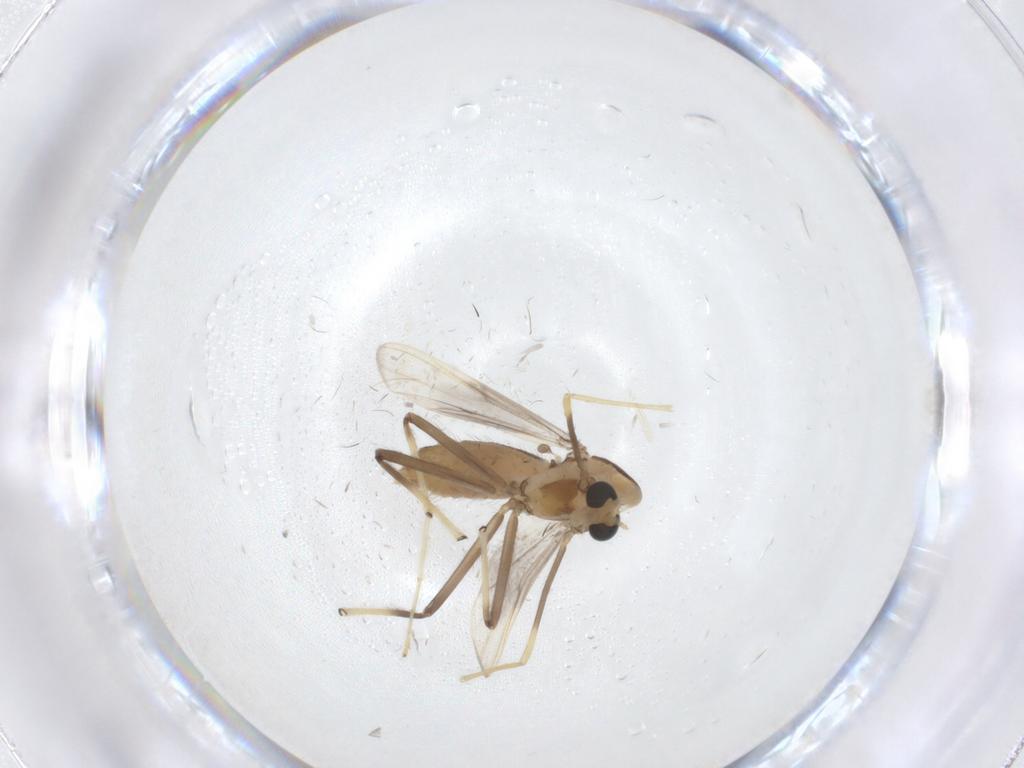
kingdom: Animalia
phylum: Arthropoda
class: Insecta
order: Diptera
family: Chironomidae
